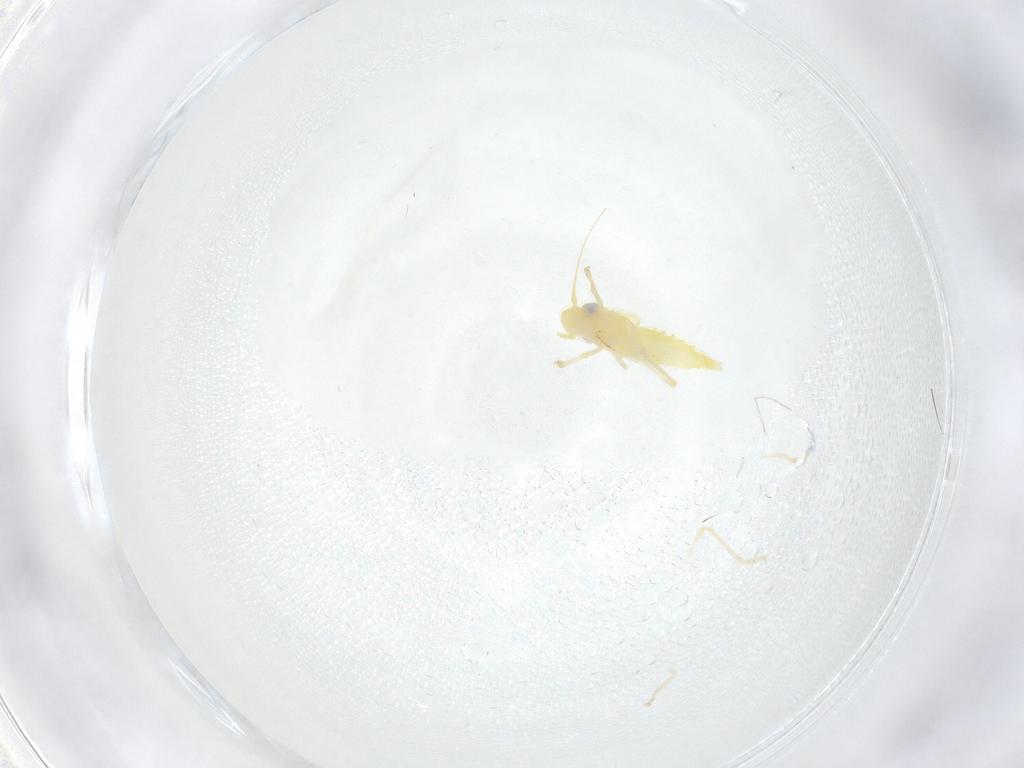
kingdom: Animalia
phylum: Arthropoda
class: Insecta
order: Hemiptera
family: Cicadellidae
